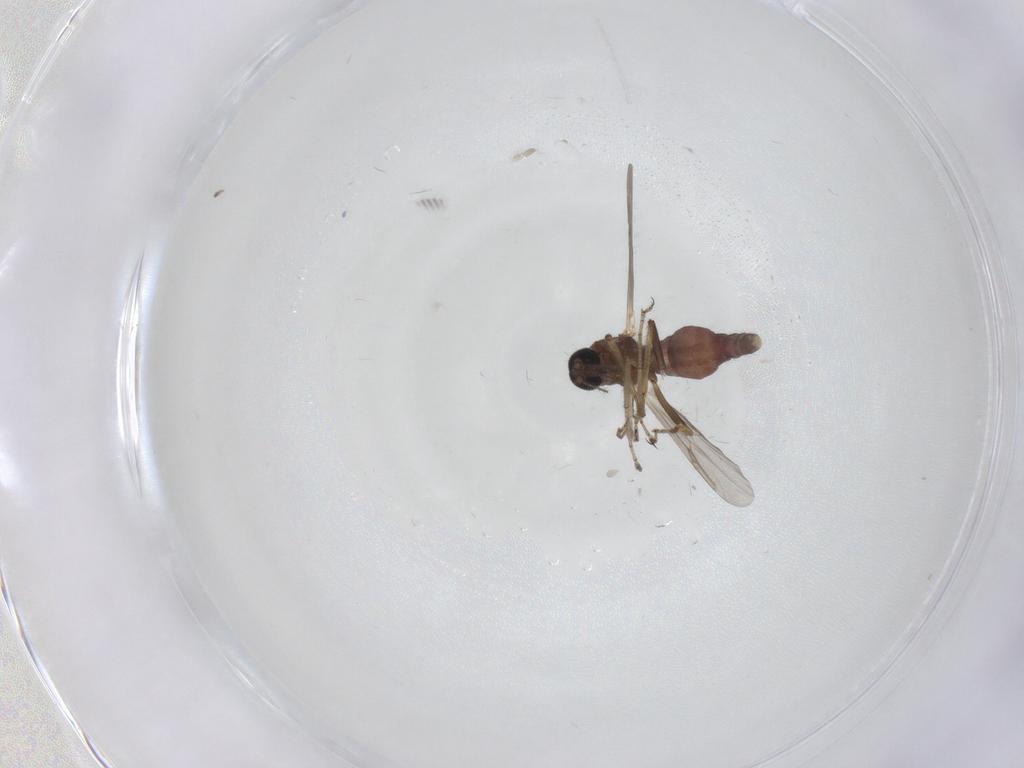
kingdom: Animalia
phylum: Arthropoda
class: Insecta
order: Diptera
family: Ceratopogonidae
